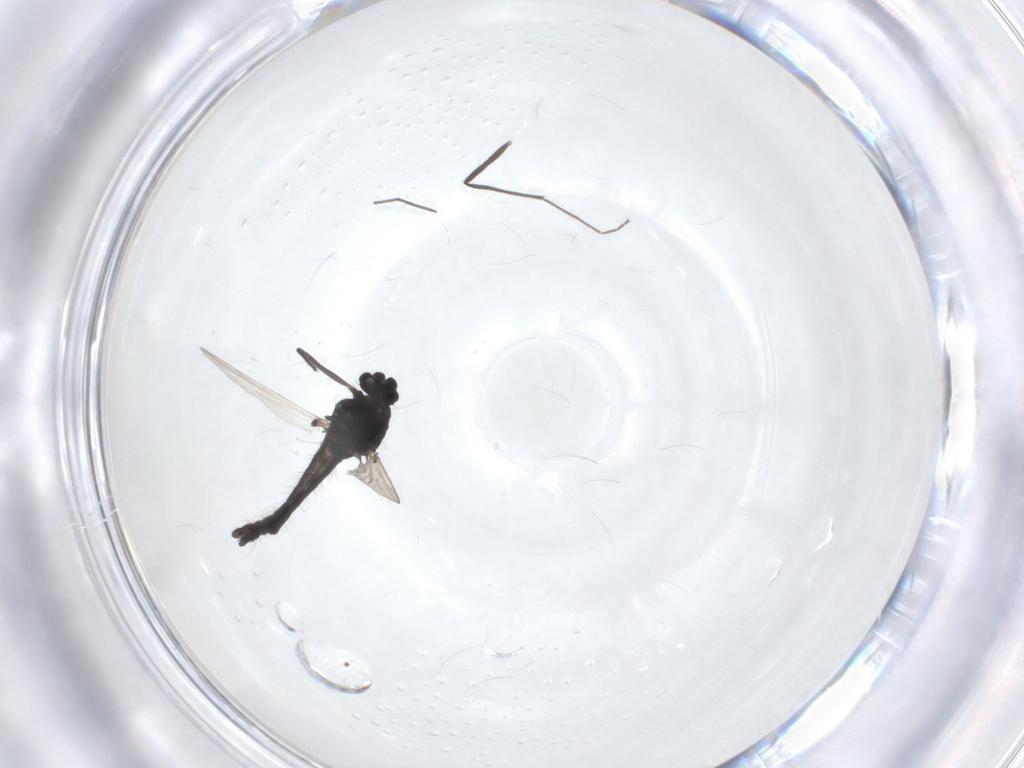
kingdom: Animalia
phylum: Arthropoda
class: Insecta
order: Diptera
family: Chironomidae
